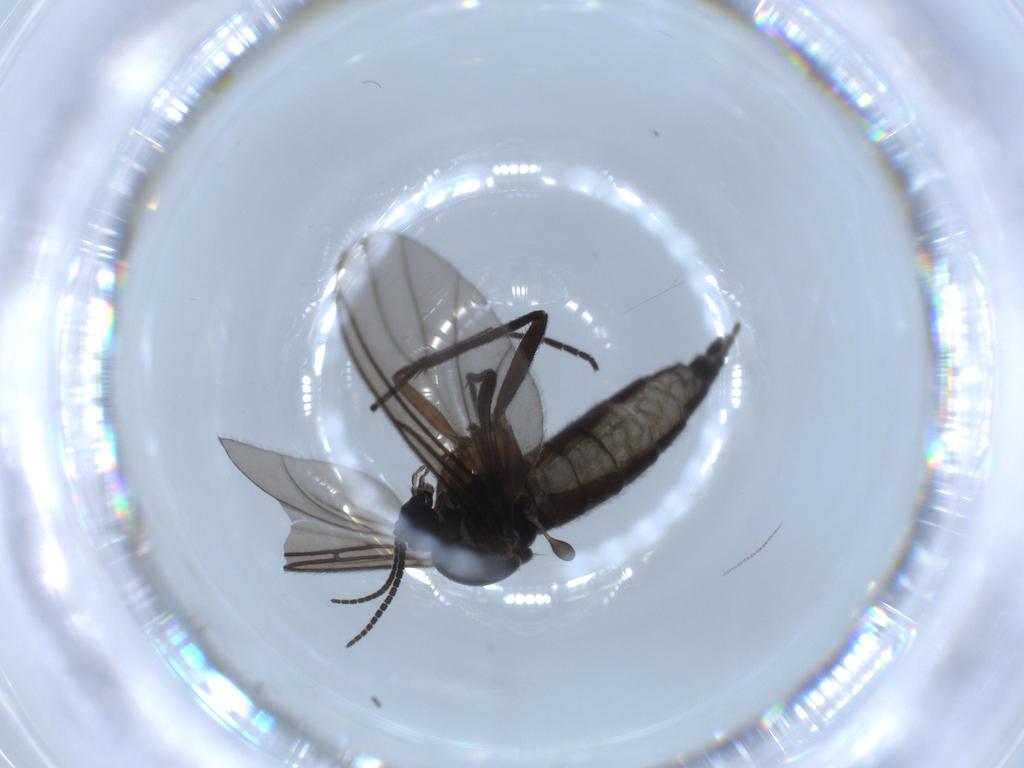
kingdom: Animalia
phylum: Arthropoda
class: Insecta
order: Diptera
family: Sciaridae
